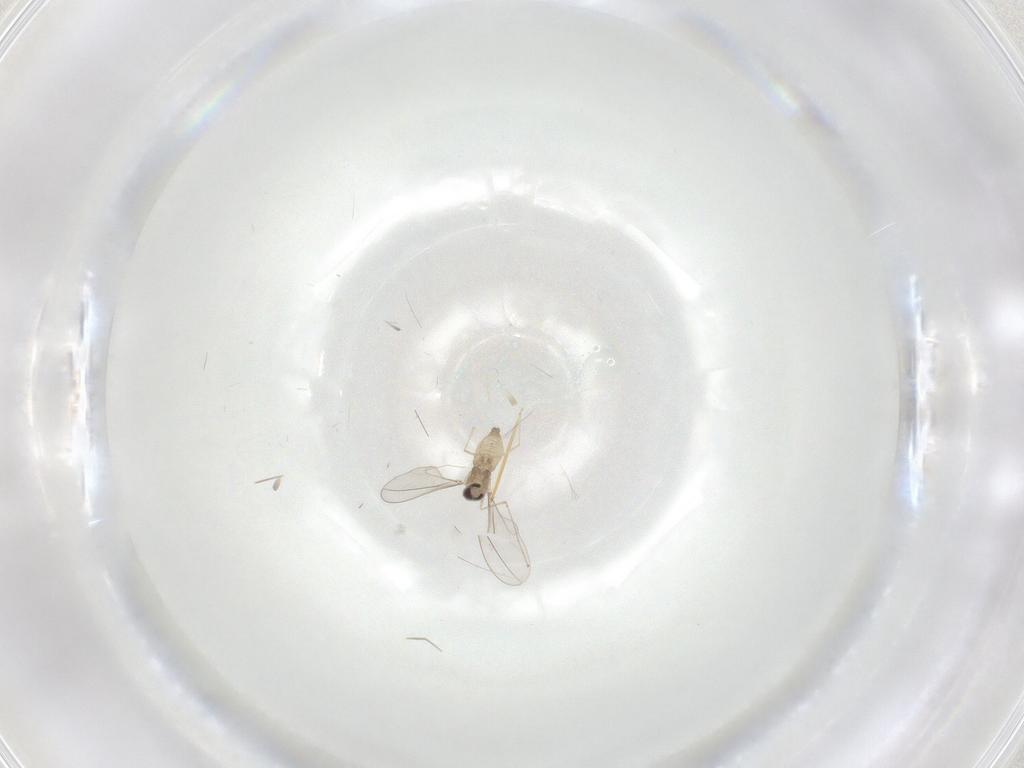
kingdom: Animalia
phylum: Arthropoda
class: Insecta
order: Diptera
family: Cecidomyiidae
